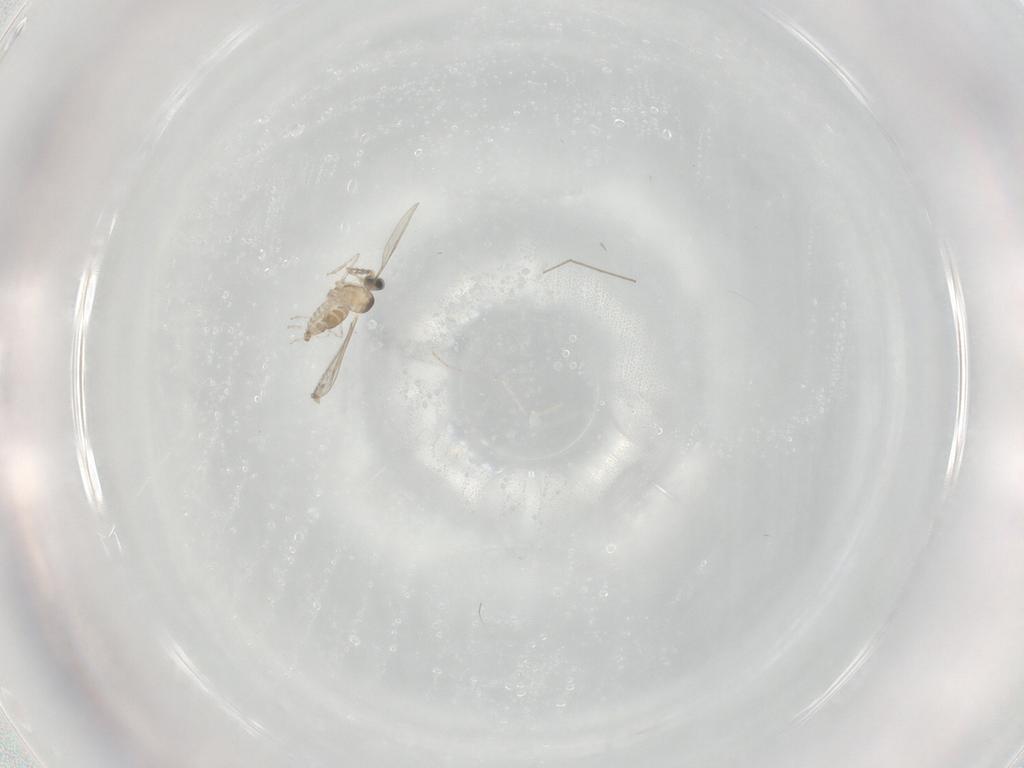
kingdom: Animalia
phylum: Arthropoda
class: Insecta
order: Diptera
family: Cecidomyiidae
